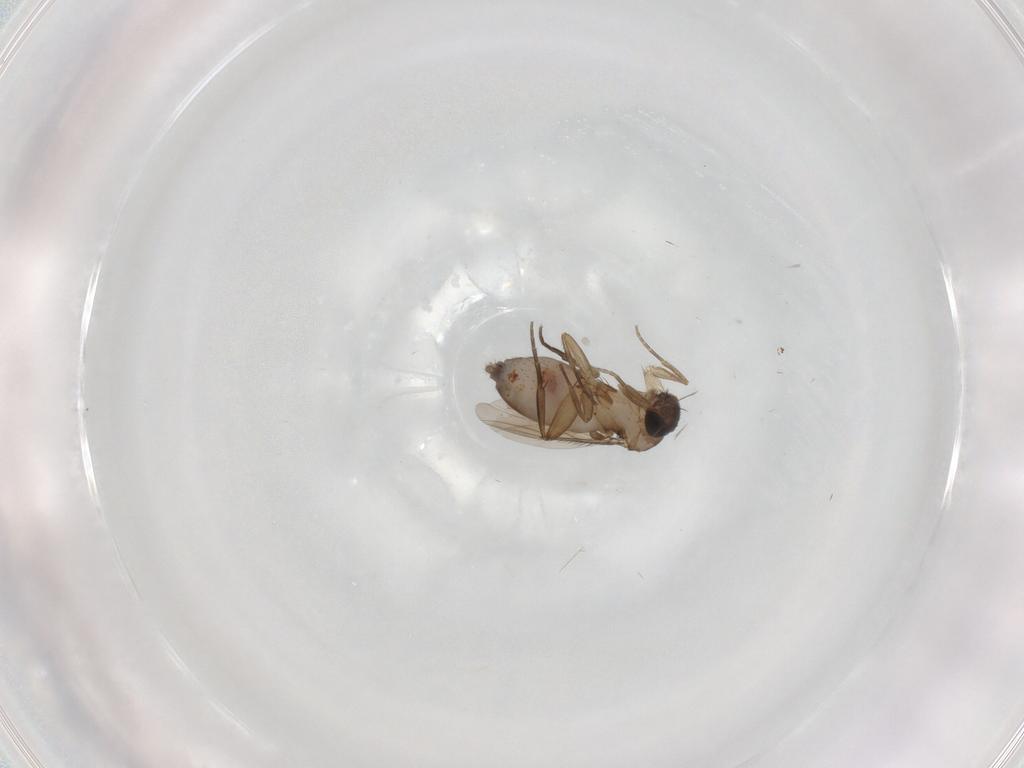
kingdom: Animalia
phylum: Arthropoda
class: Insecta
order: Diptera
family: Phoridae
